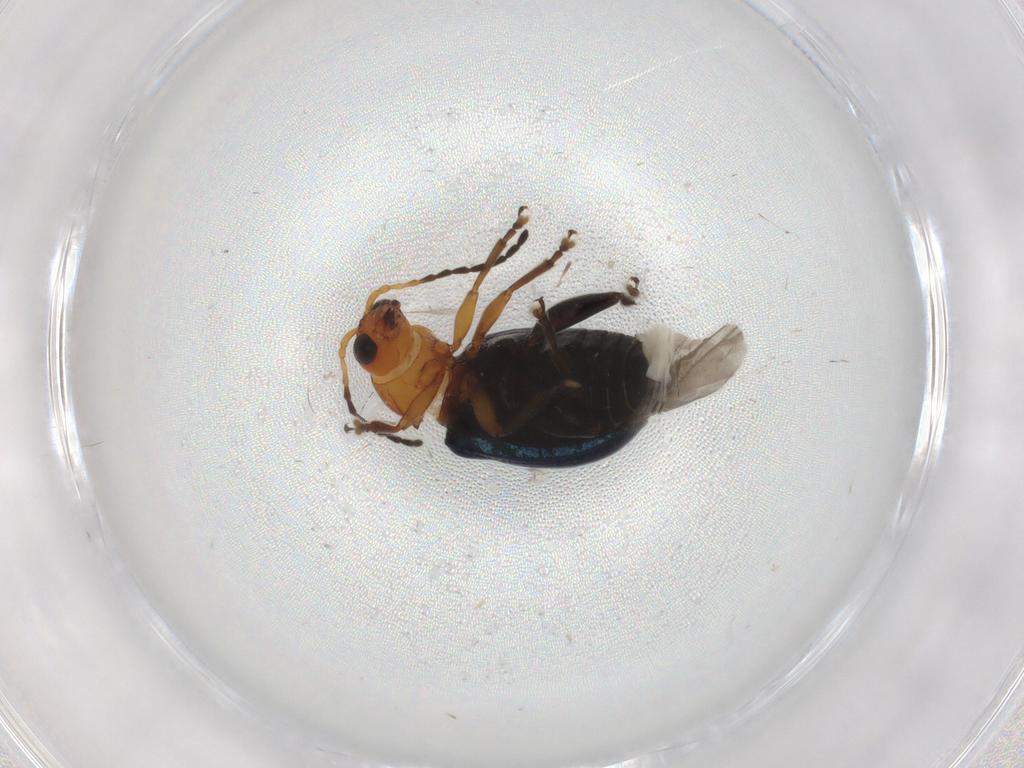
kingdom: Animalia
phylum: Arthropoda
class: Insecta
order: Coleoptera
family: Chrysomelidae
